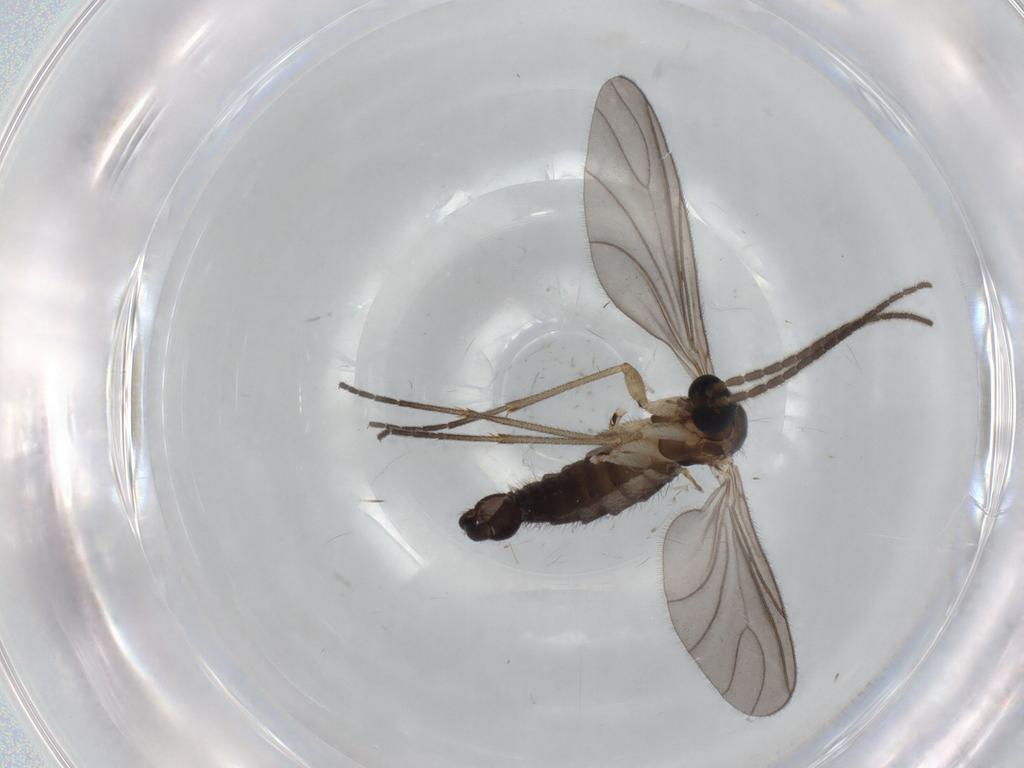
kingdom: Animalia
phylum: Arthropoda
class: Insecta
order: Diptera
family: Sciaridae
